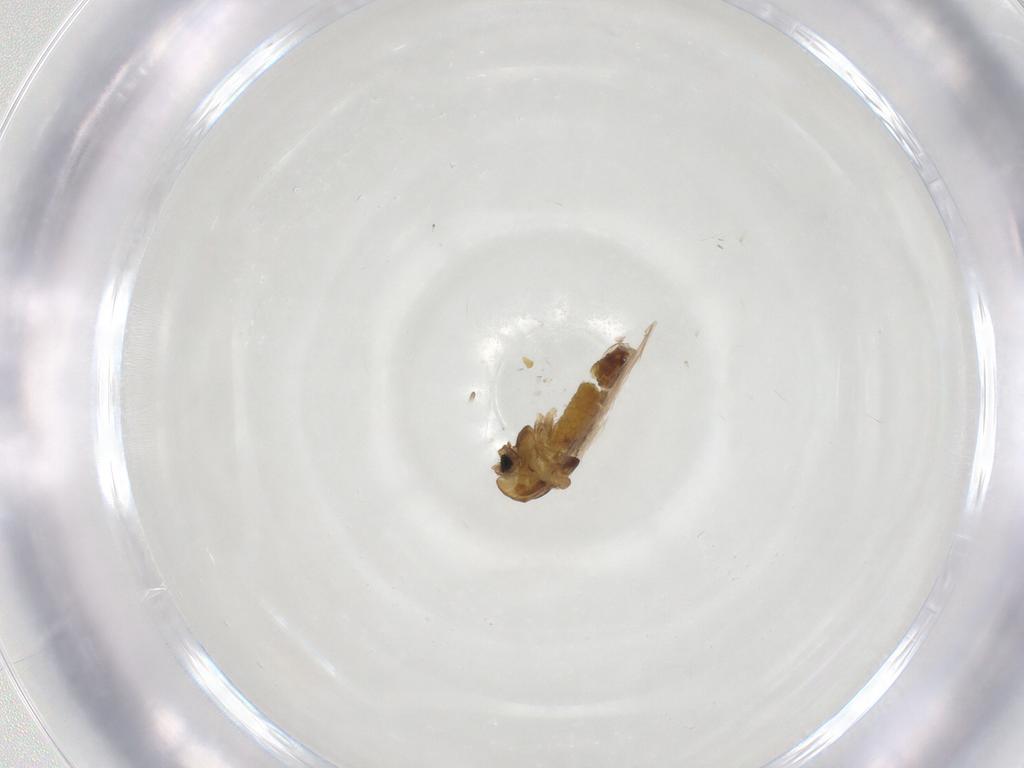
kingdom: Animalia
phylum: Arthropoda
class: Insecta
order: Diptera
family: Chironomidae
